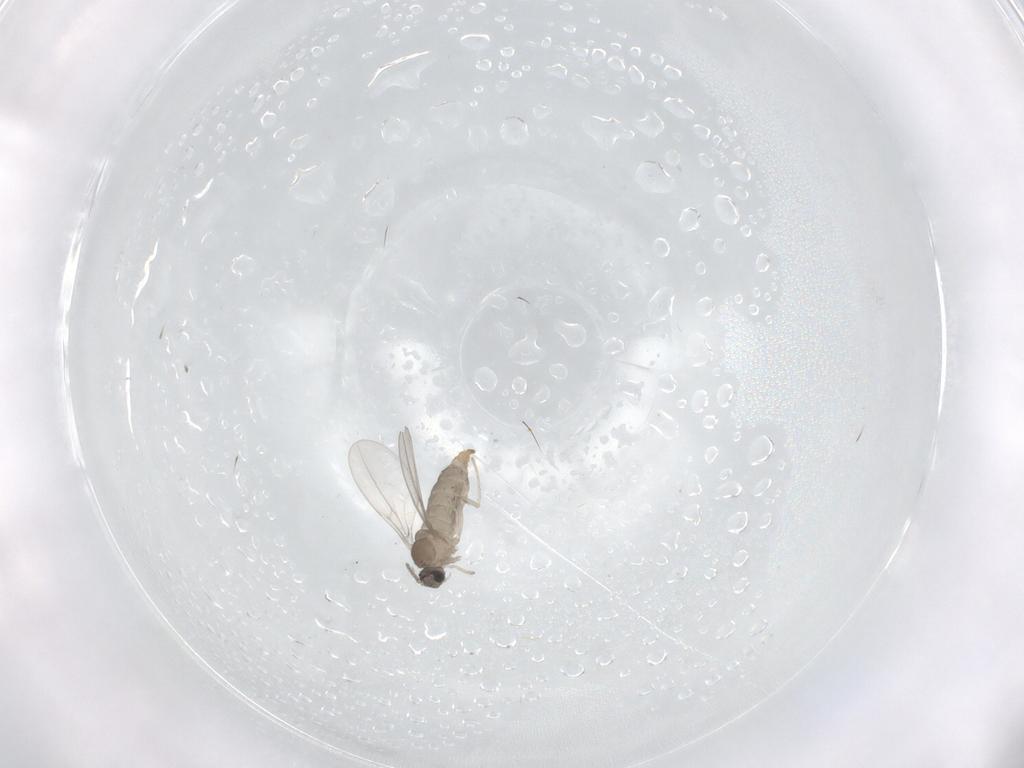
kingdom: Animalia
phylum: Arthropoda
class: Insecta
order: Diptera
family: Cecidomyiidae
